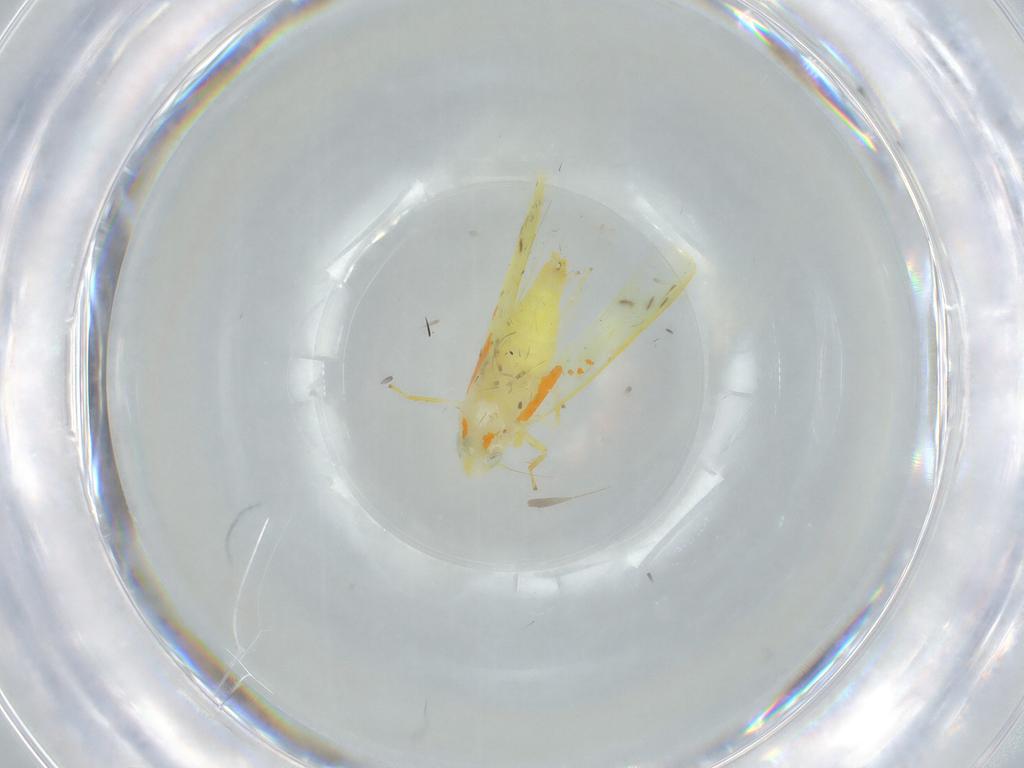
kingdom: Animalia
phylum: Arthropoda
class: Insecta
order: Hemiptera
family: Cicadellidae
